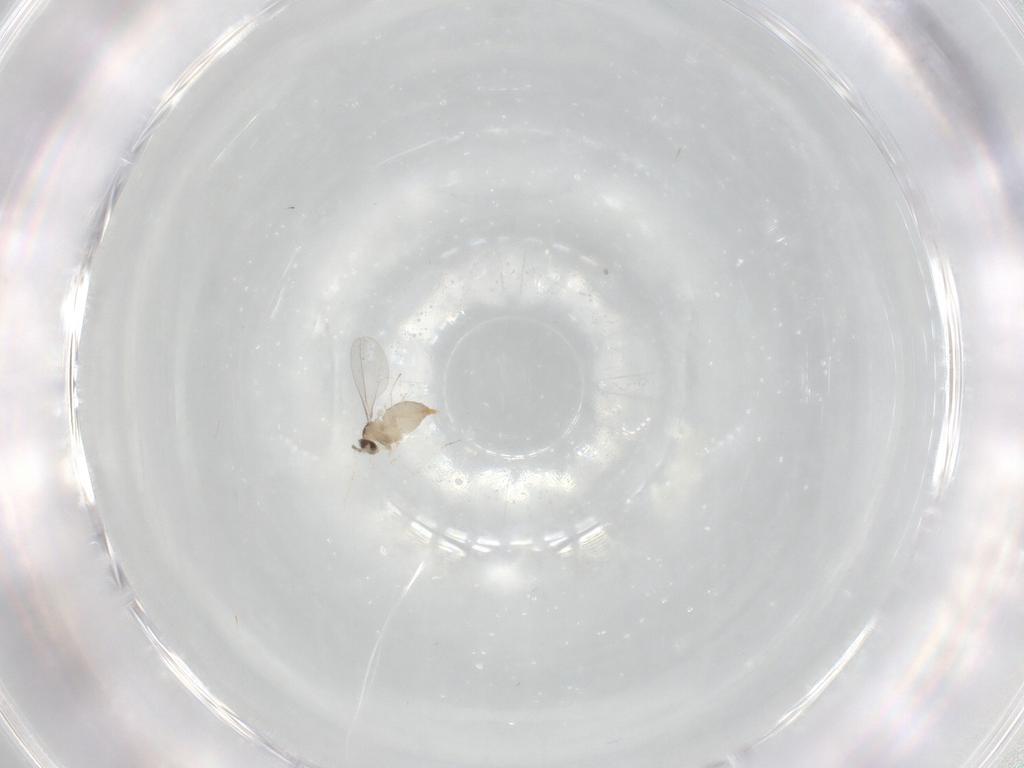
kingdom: Animalia
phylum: Arthropoda
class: Insecta
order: Diptera
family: Cecidomyiidae
